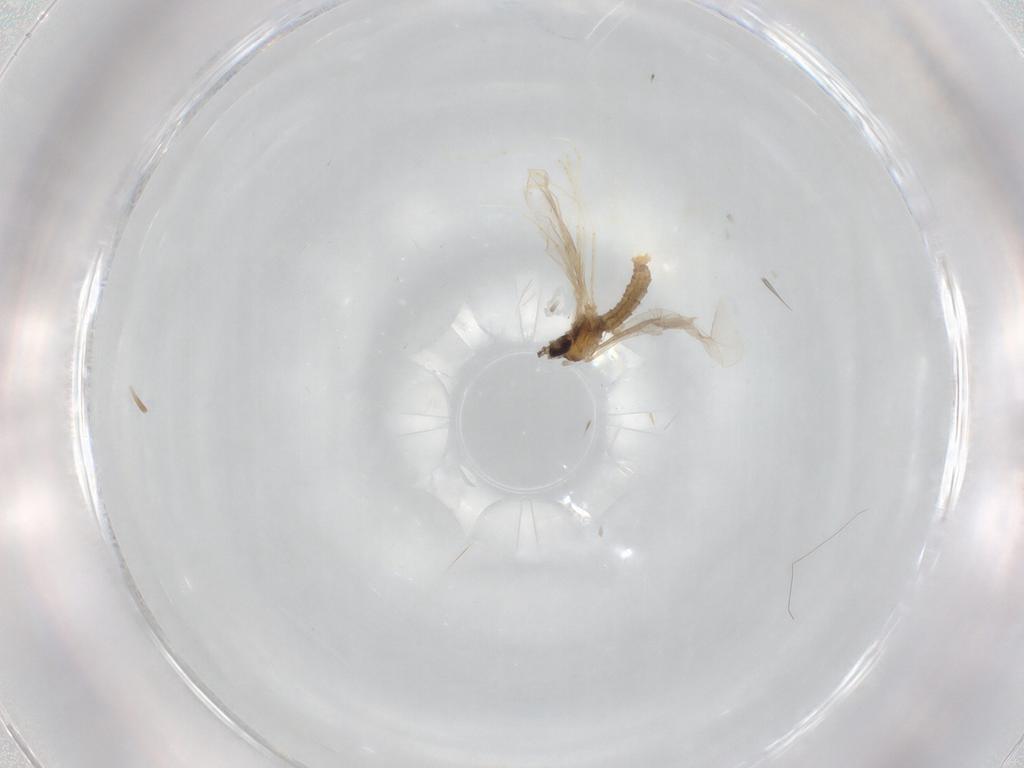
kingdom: Animalia
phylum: Arthropoda
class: Insecta
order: Diptera
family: Cecidomyiidae
